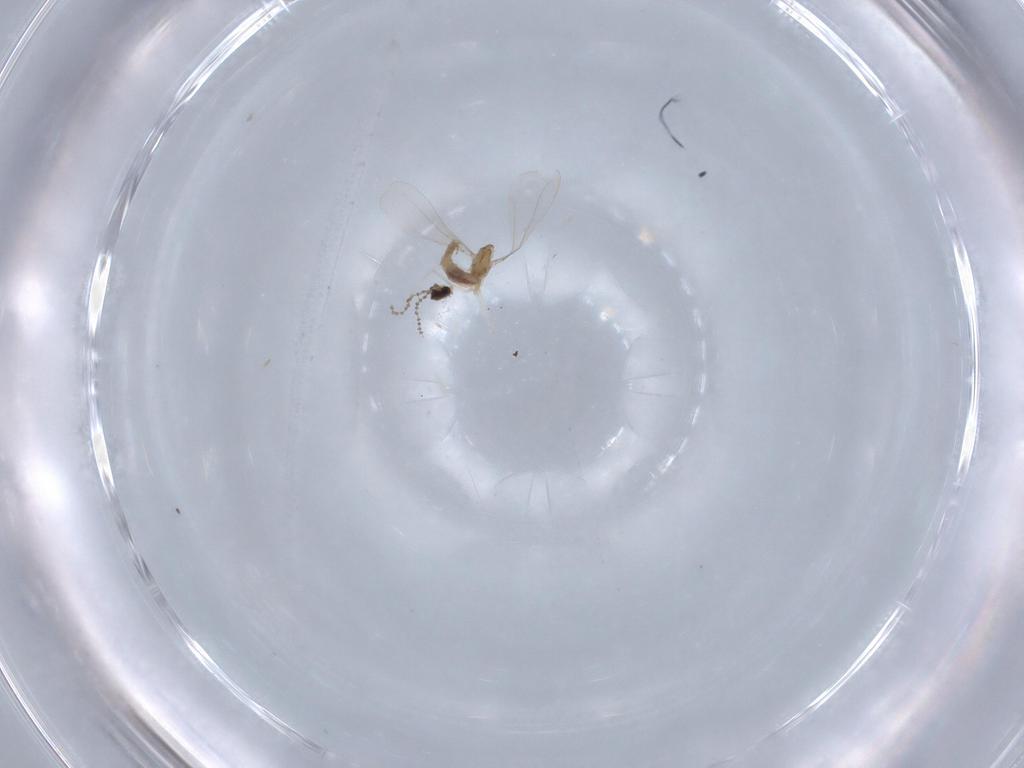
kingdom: Animalia
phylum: Arthropoda
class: Insecta
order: Diptera
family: Cecidomyiidae
